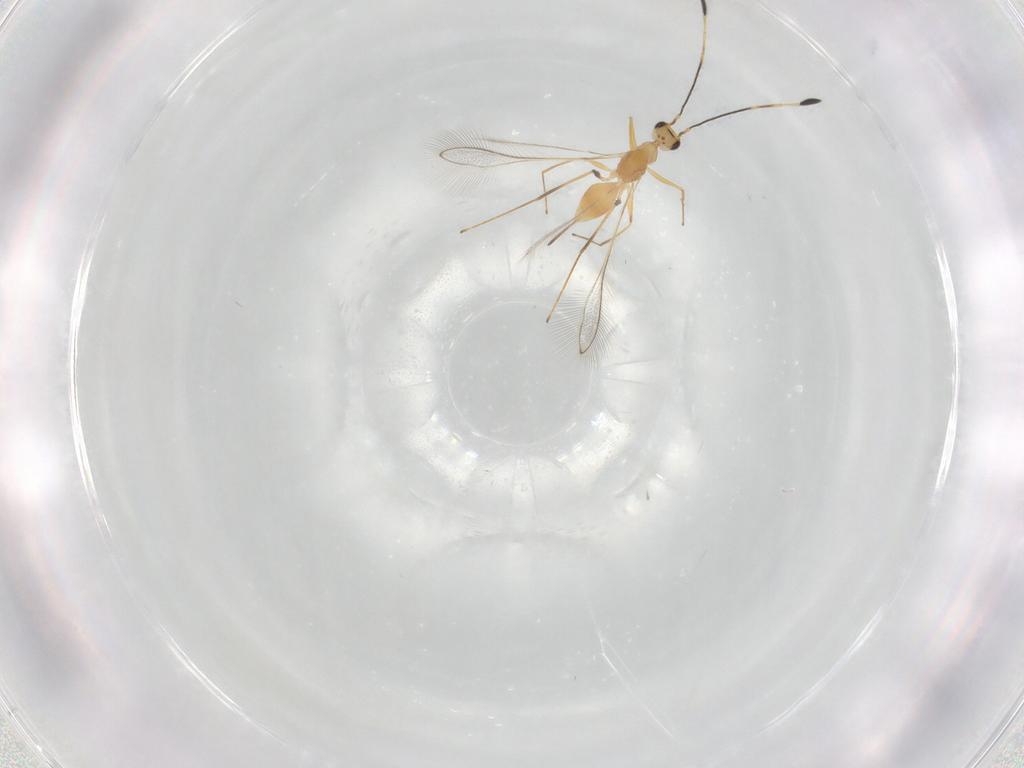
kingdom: Animalia
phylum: Arthropoda
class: Insecta
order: Hymenoptera
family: Mymaridae
